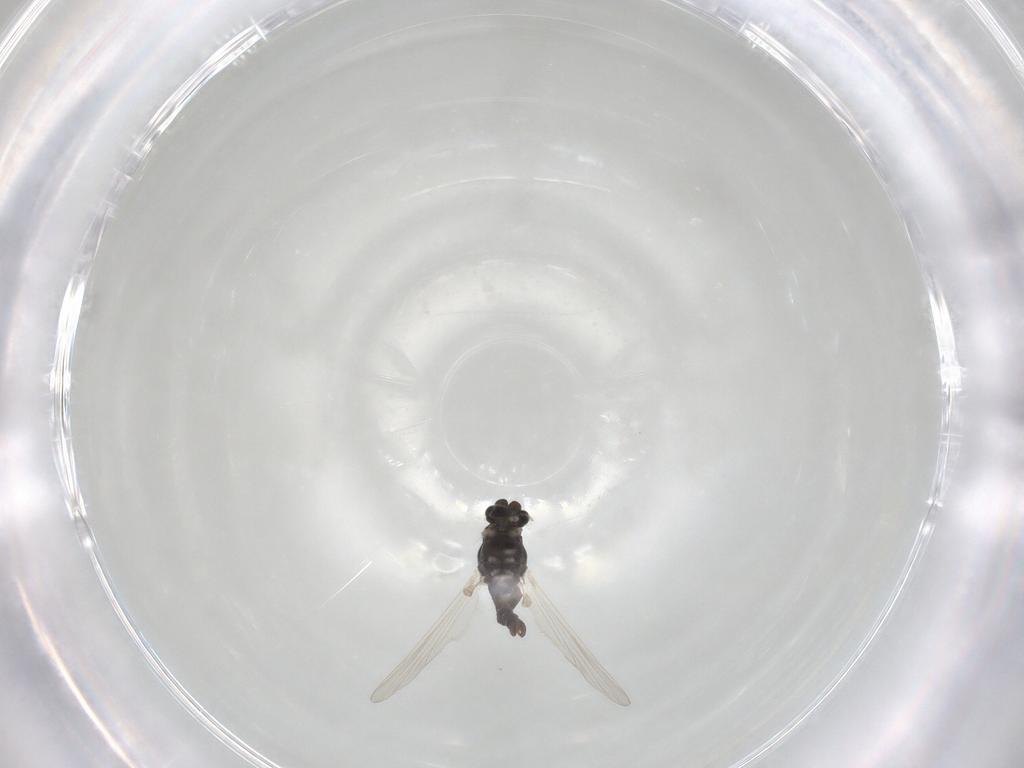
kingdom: Animalia
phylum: Arthropoda
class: Insecta
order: Diptera
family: Chironomidae
